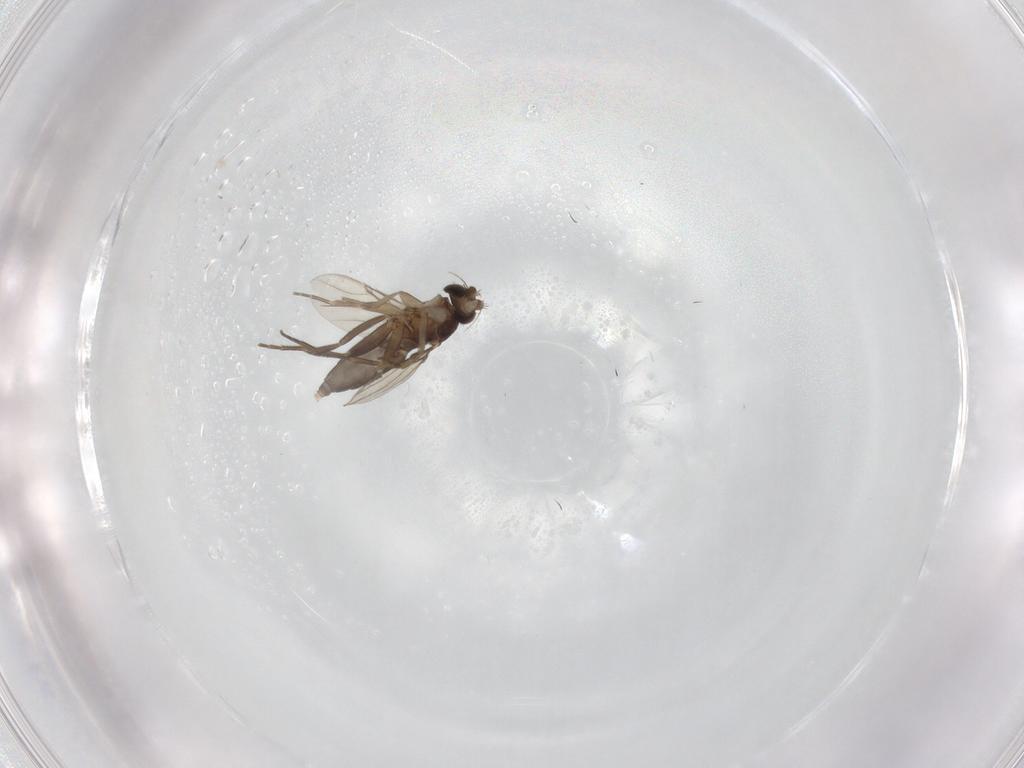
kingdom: Animalia
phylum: Arthropoda
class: Insecta
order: Diptera
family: Phoridae
